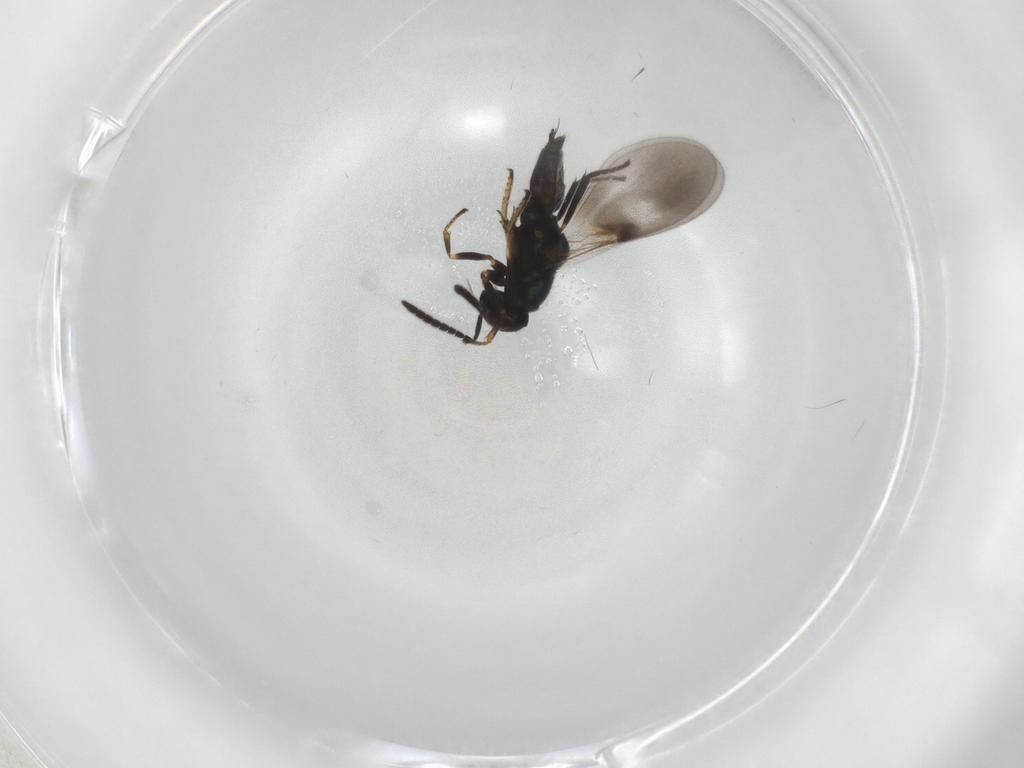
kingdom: Animalia
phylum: Arthropoda
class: Insecta
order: Hymenoptera
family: Encyrtidae
